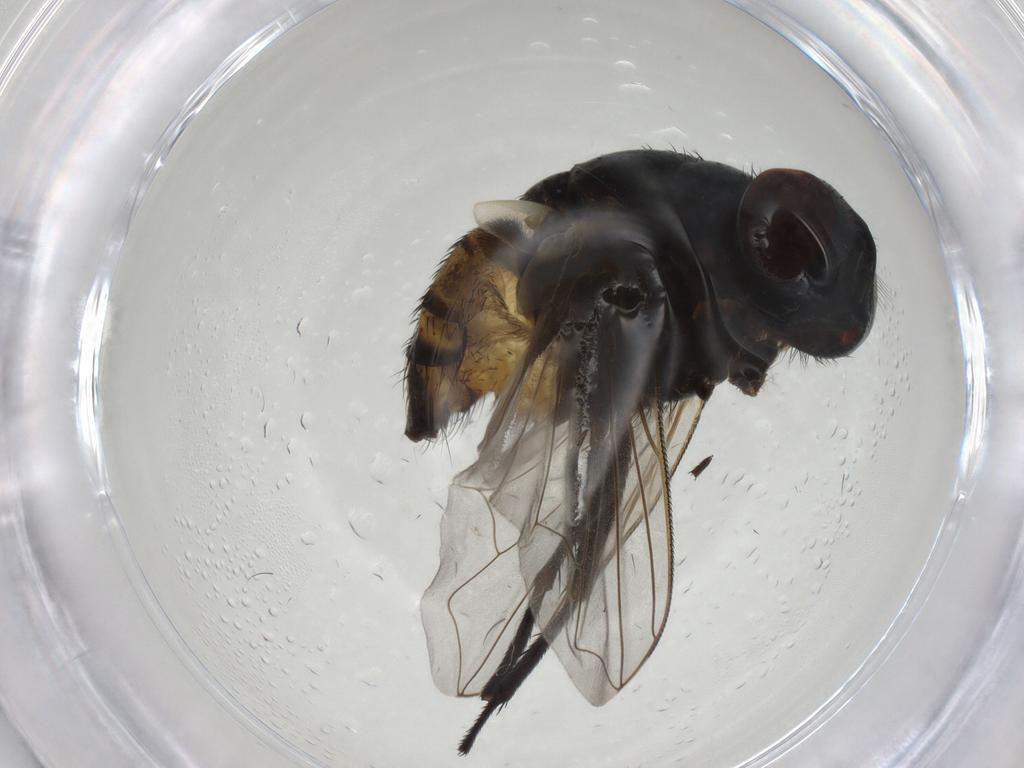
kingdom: Animalia
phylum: Arthropoda
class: Insecta
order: Diptera
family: Muscidae
